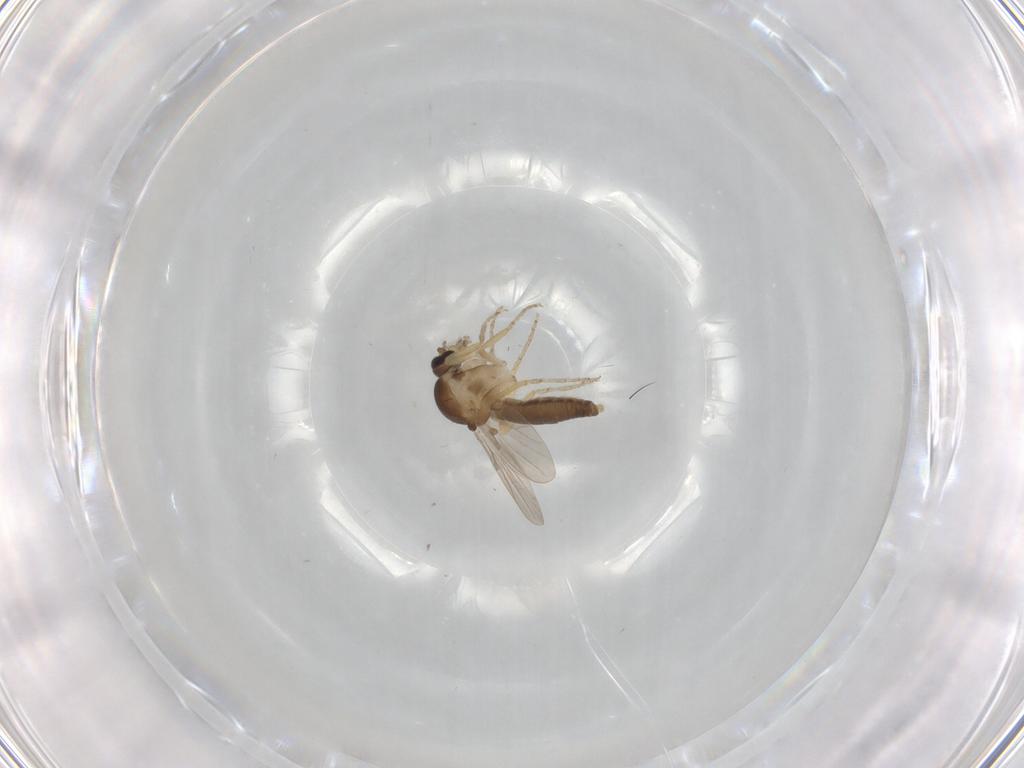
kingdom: Animalia
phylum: Arthropoda
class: Insecta
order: Diptera
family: Ceratopogonidae
